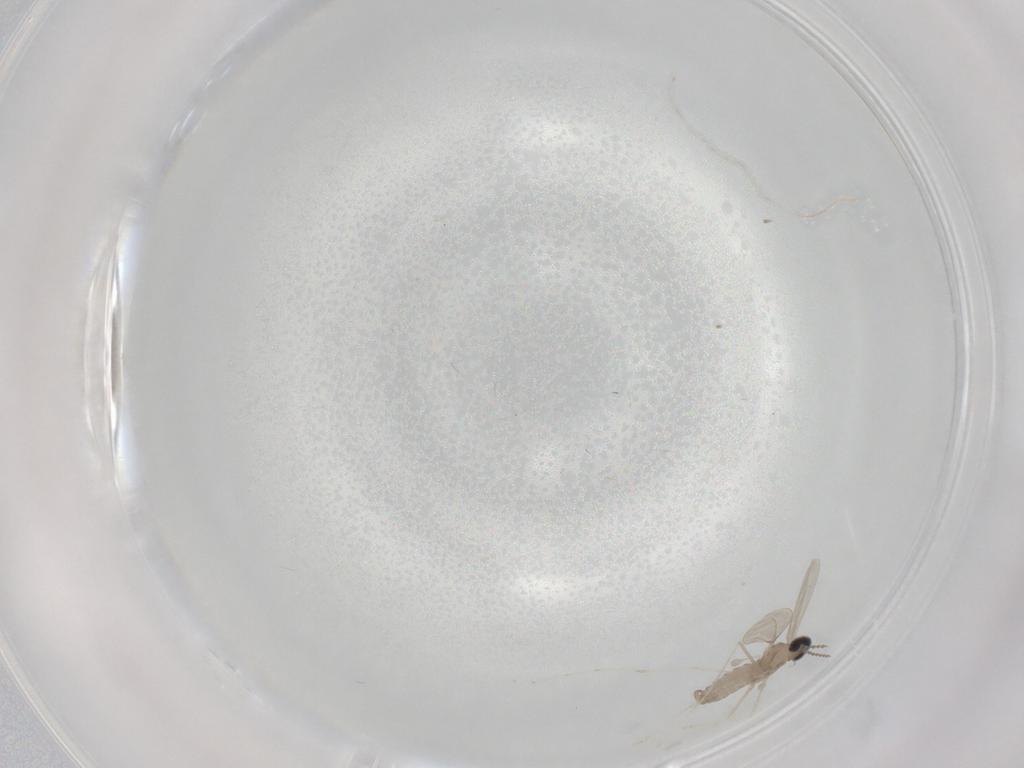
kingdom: Animalia
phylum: Arthropoda
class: Insecta
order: Diptera
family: Cecidomyiidae
